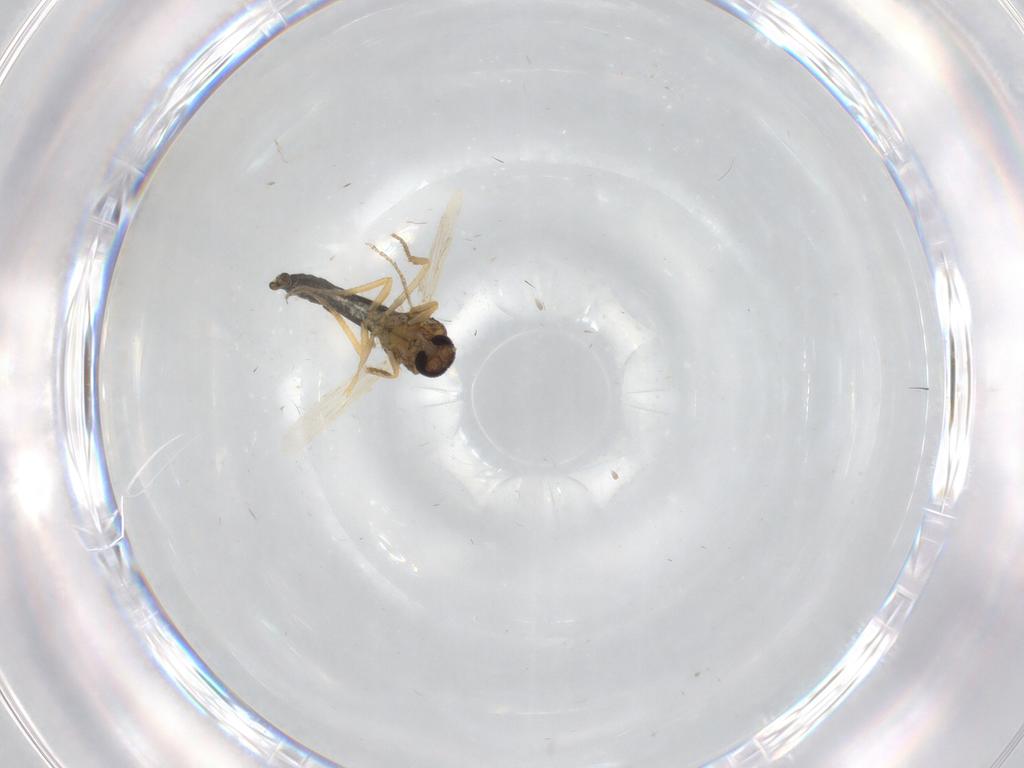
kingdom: Animalia
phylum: Arthropoda
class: Insecta
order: Diptera
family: Ceratopogonidae
